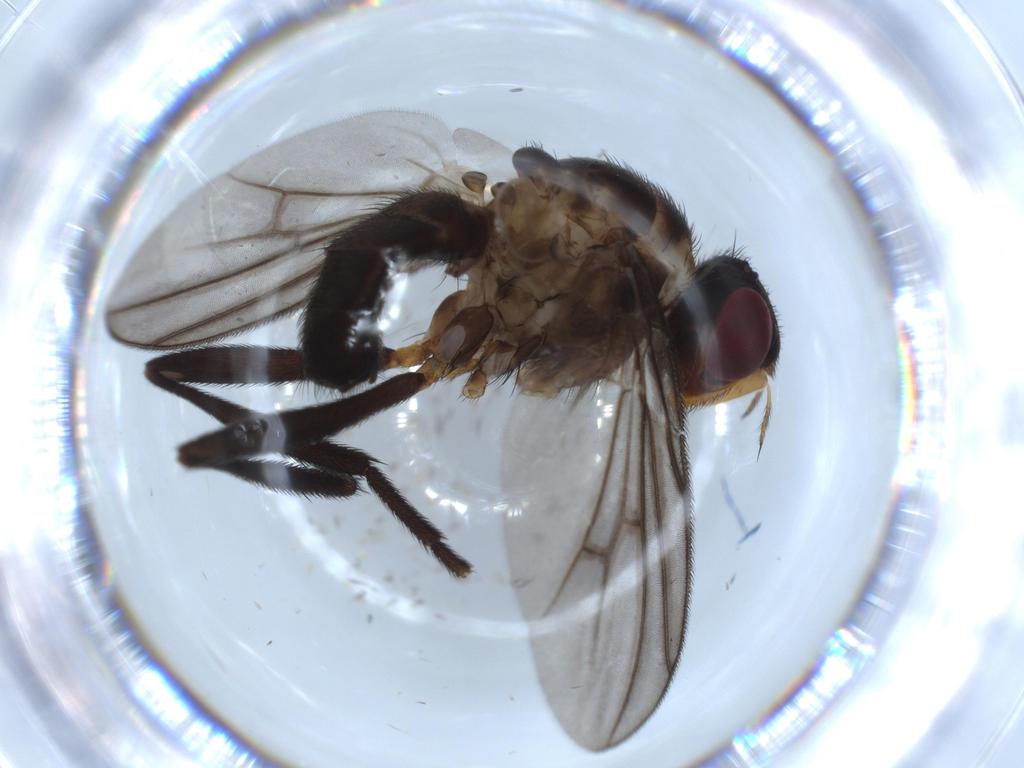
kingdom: Animalia
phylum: Arthropoda
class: Insecta
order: Diptera
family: Calliphoridae
